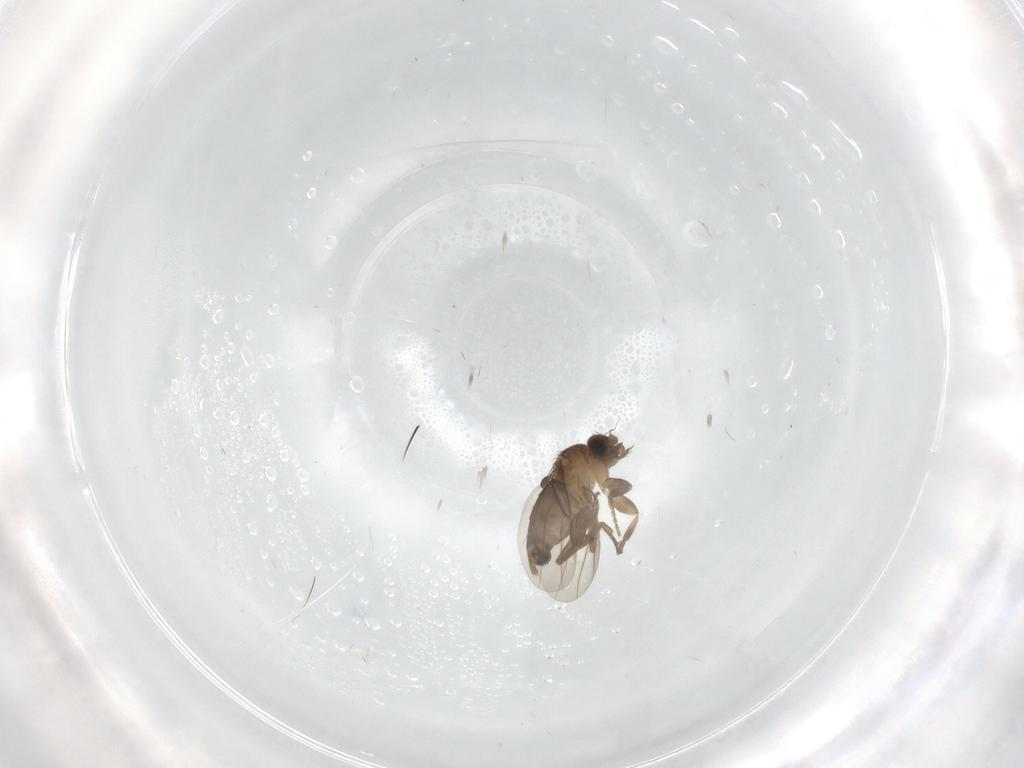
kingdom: Animalia
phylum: Arthropoda
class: Insecta
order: Diptera
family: Phoridae
